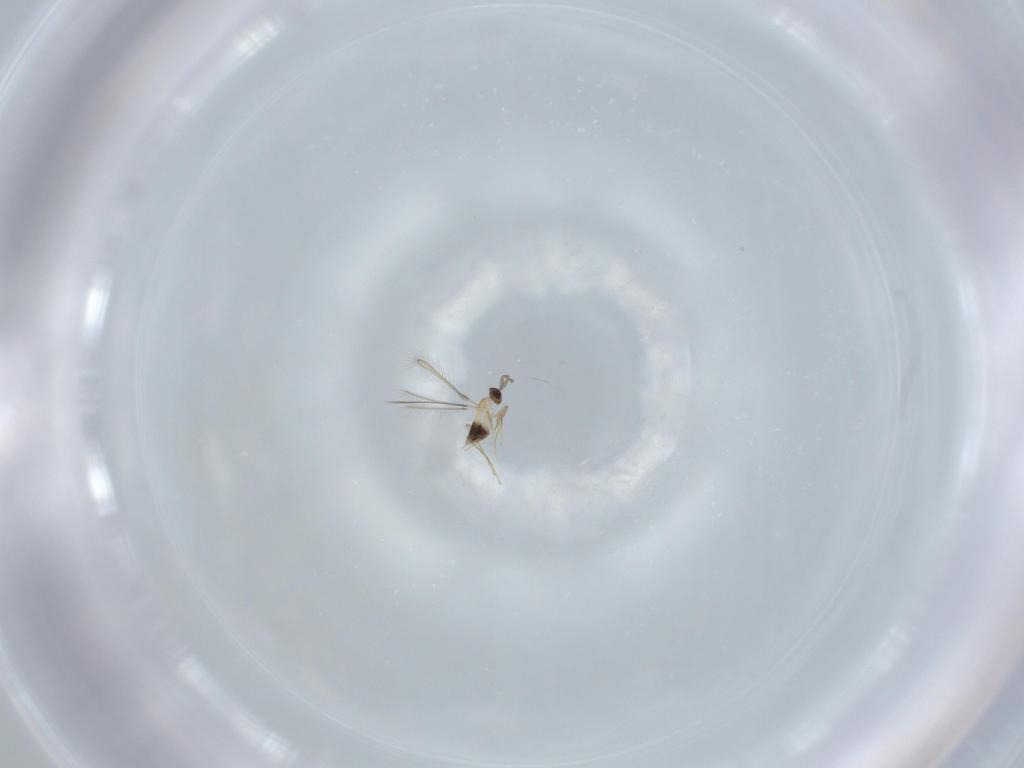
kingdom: Animalia
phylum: Arthropoda
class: Insecta
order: Hymenoptera
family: Mymaridae
